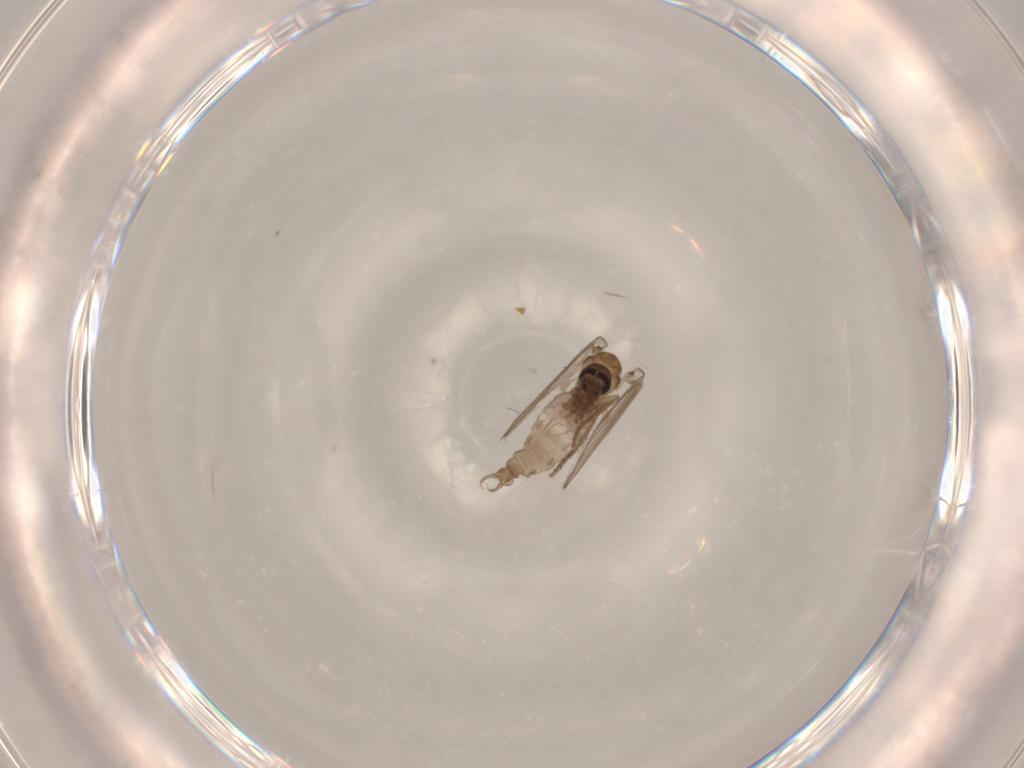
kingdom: Animalia
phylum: Arthropoda
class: Insecta
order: Diptera
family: Psychodidae
